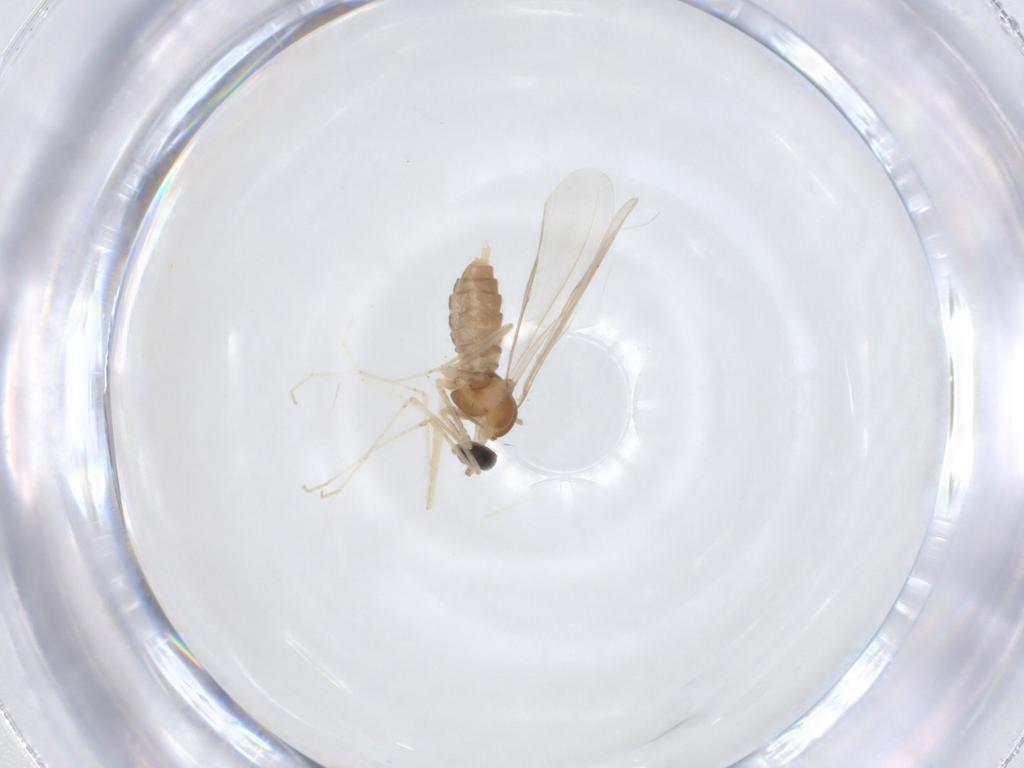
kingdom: Animalia
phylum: Arthropoda
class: Insecta
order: Diptera
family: Cecidomyiidae
